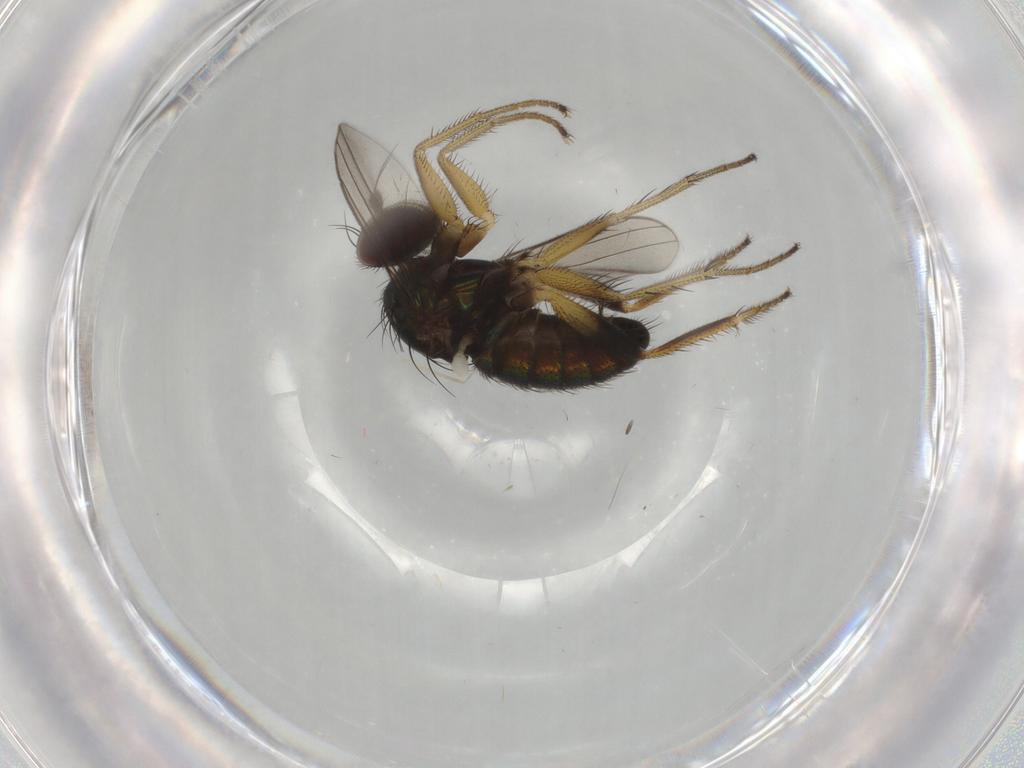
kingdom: Animalia
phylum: Arthropoda
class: Insecta
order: Diptera
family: Dolichopodidae
